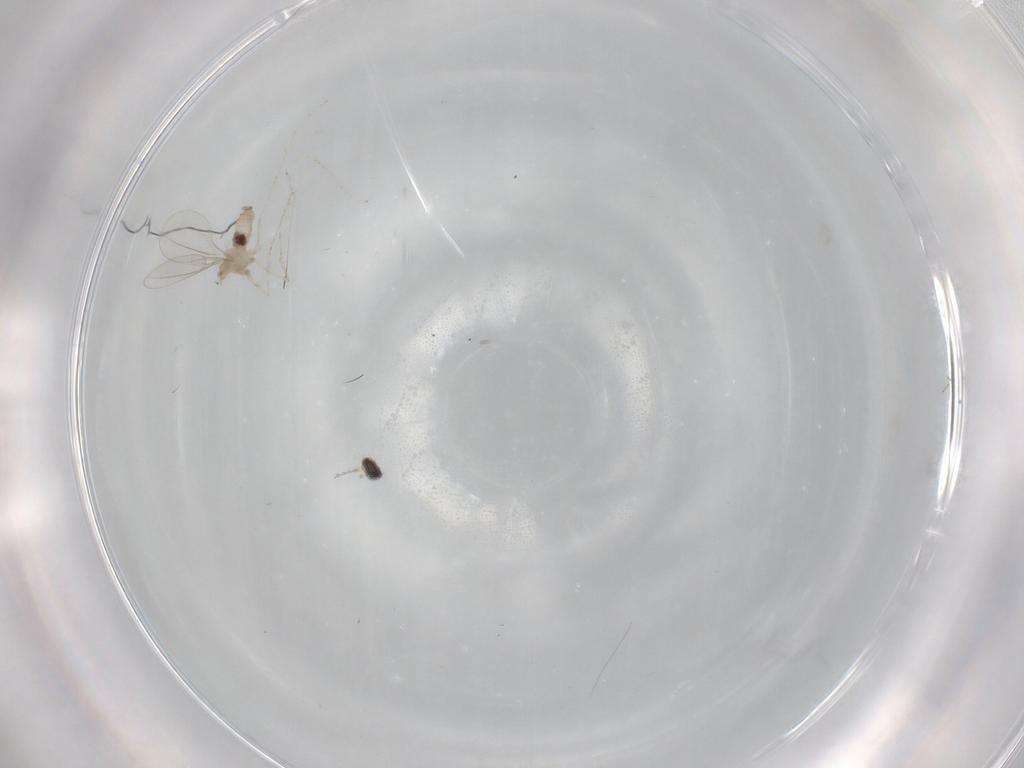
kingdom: Animalia
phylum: Arthropoda
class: Insecta
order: Diptera
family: Cecidomyiidae
